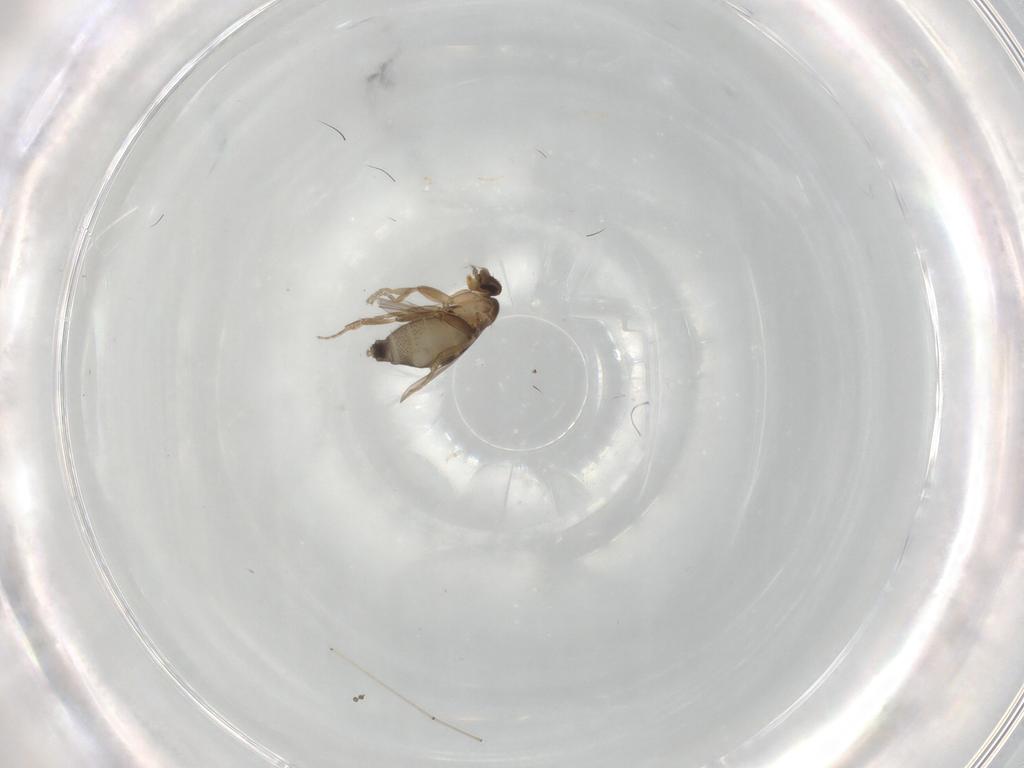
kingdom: Animalia
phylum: Arthropoda
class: Insecta
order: Diptera
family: Phoridae
